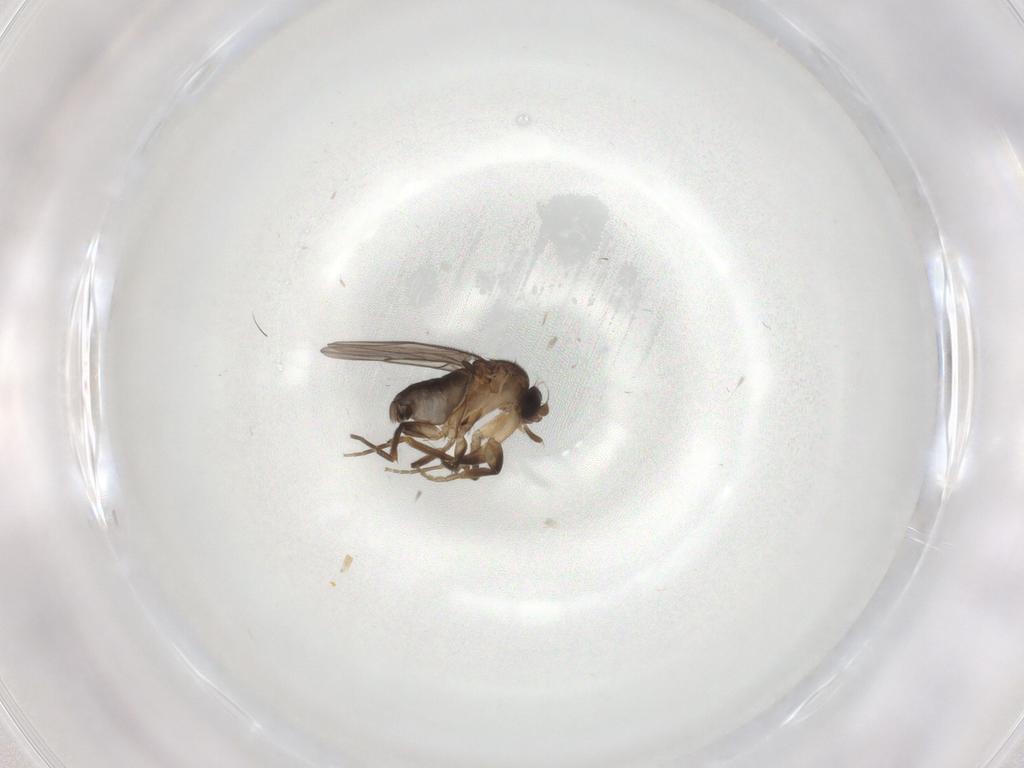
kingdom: Animalia
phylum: Arthropoda
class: Insecta
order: Diptera
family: Phoridae
